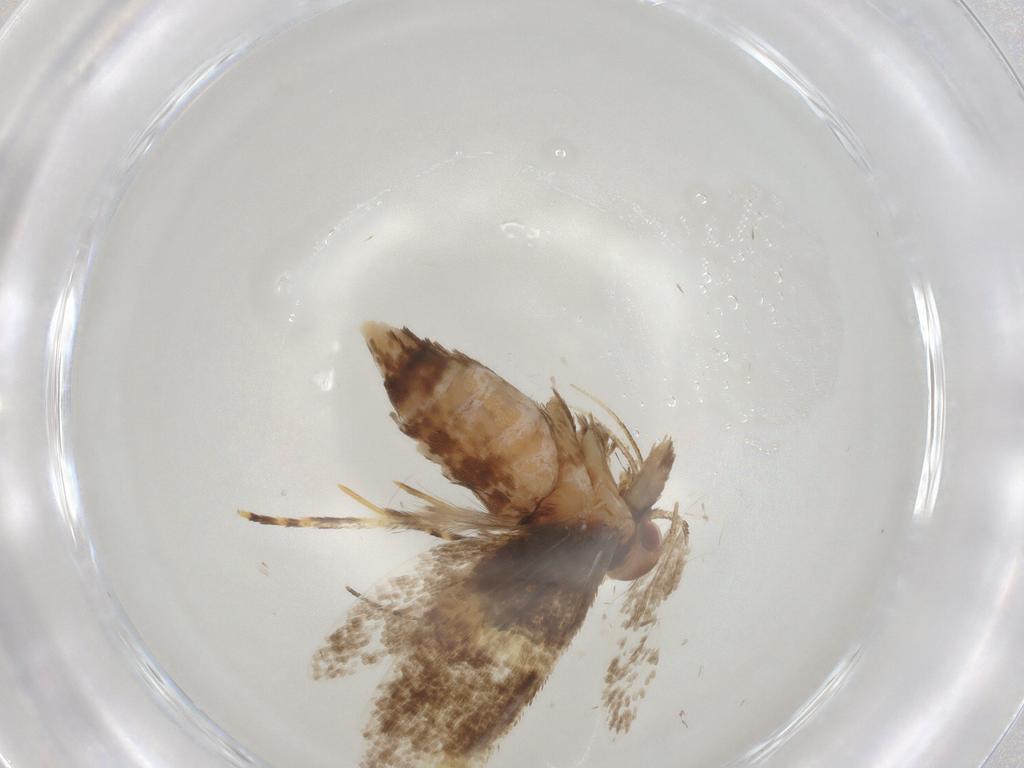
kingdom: Animalia
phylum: Arthropoda
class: Insecta
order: Lepidoptera
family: Oecophoridae
